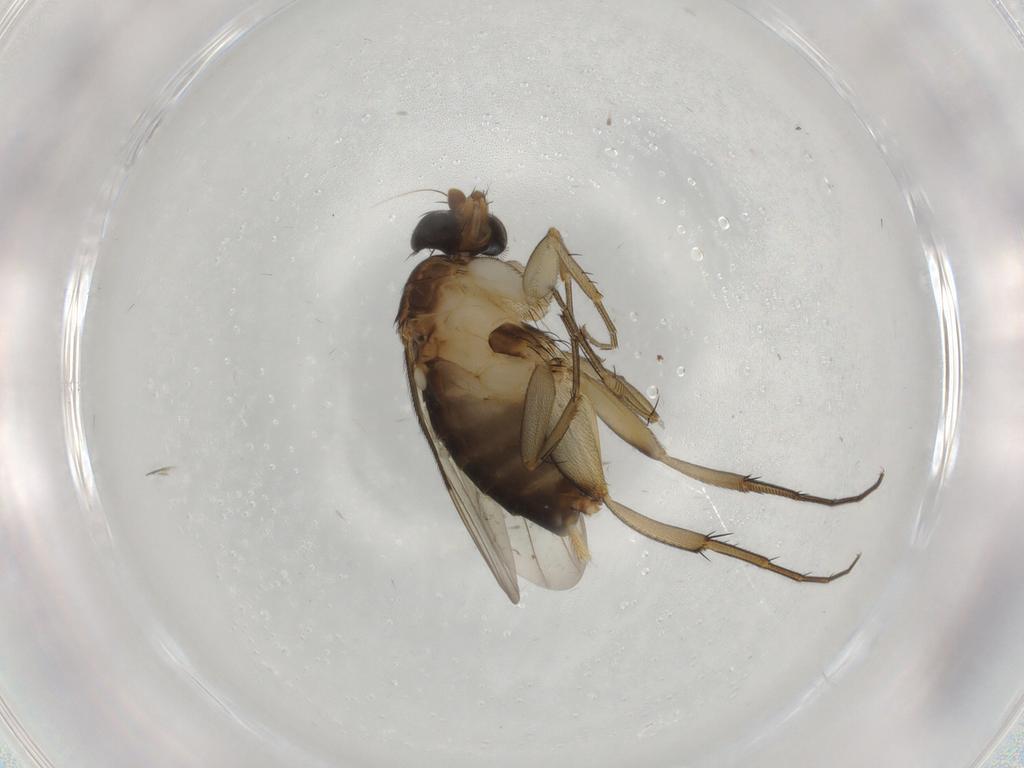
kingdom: Animalia
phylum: Arthropoda
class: Insecta
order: Diptera
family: Phoridae
